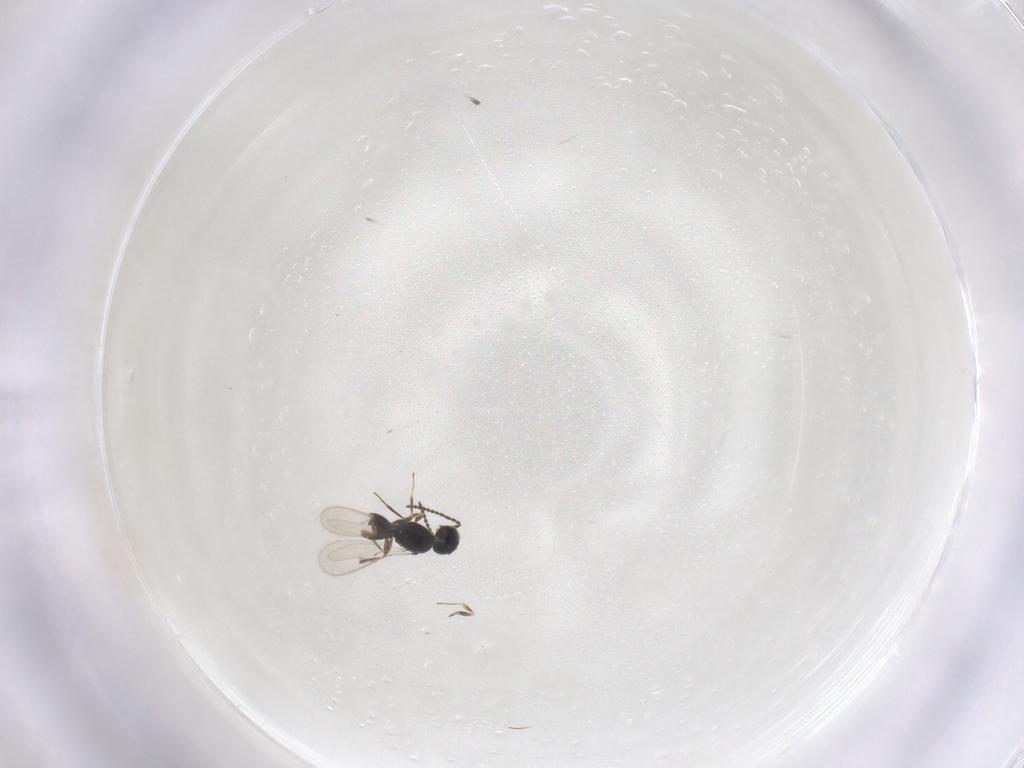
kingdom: Animalia
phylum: Arthropoda
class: Insecta
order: Hymenoptera
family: Scelionidae
